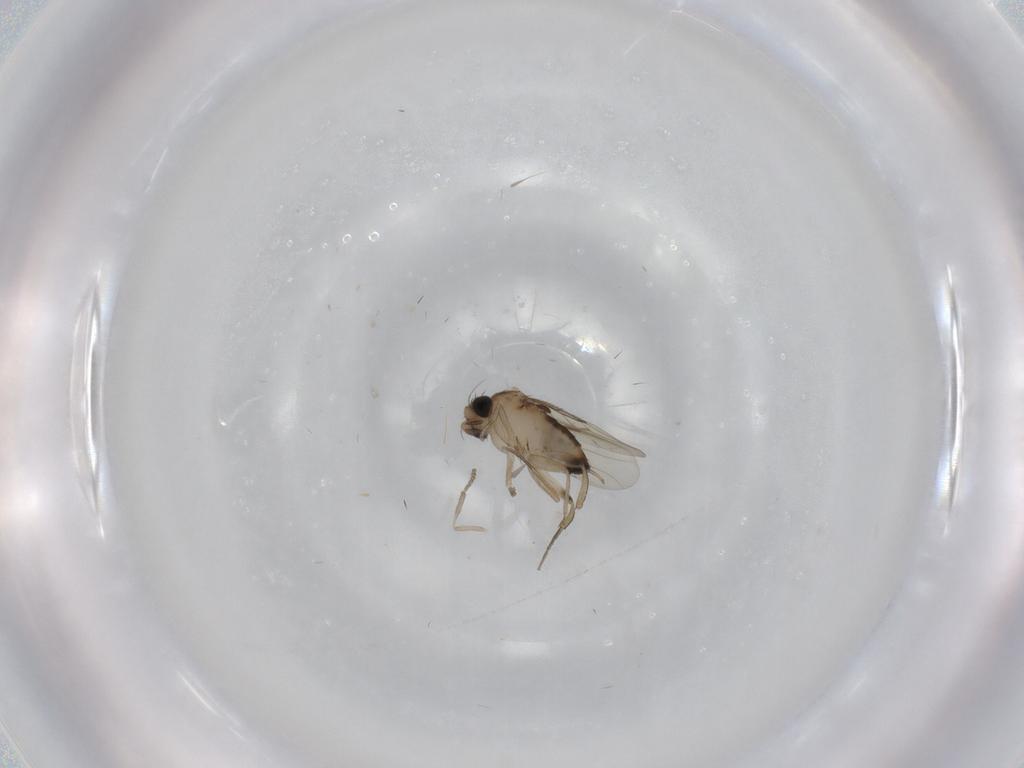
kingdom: Animalia
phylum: Arthropoda
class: Insecta
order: Diptera
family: Phoridae
